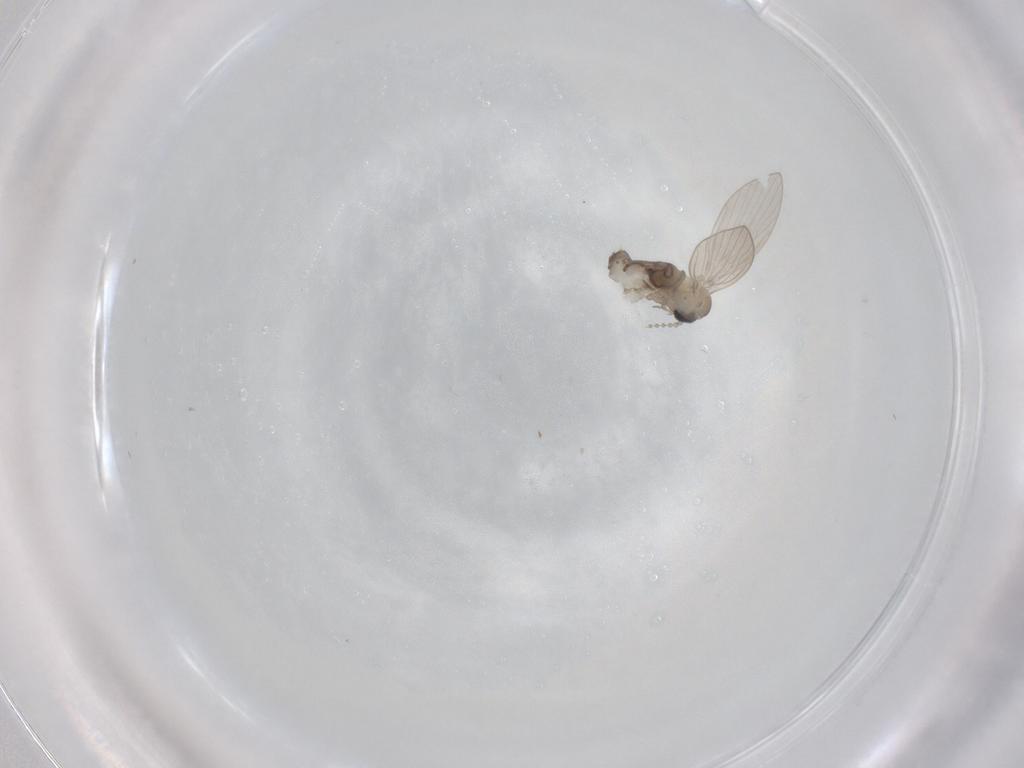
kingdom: Animalia
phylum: Arthropoda
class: Insecta
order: Diptera
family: Psychodidae
